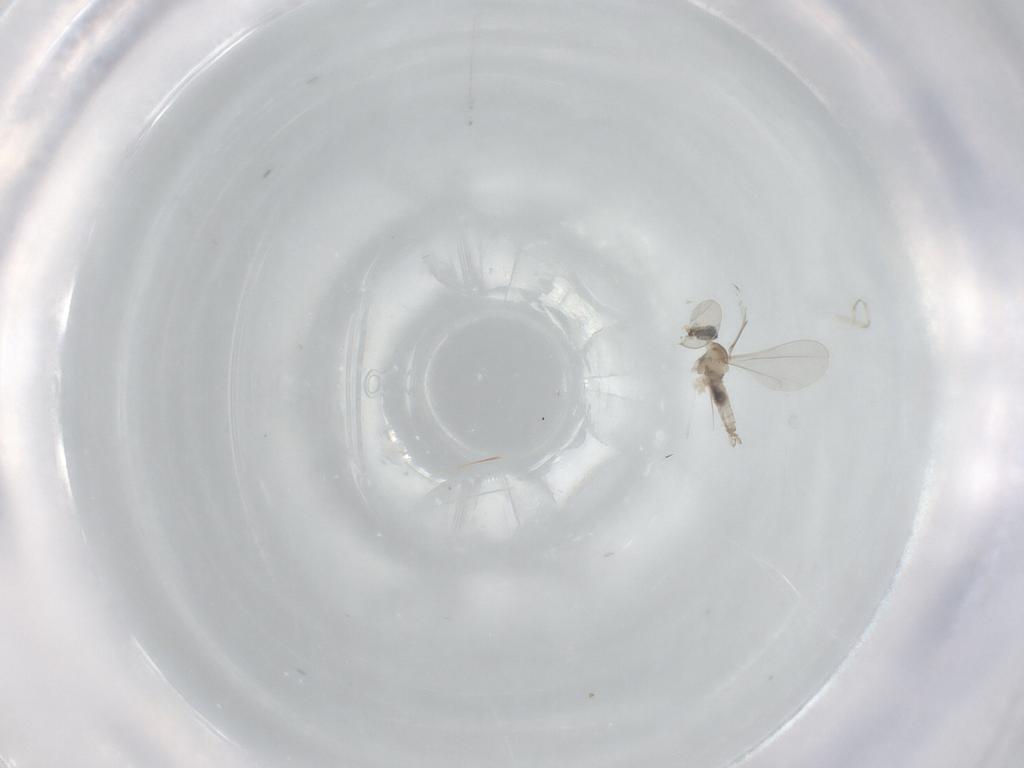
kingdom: Animalia
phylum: Arthropoda
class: Insecta
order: Diptera
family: Cecidomyiidae
